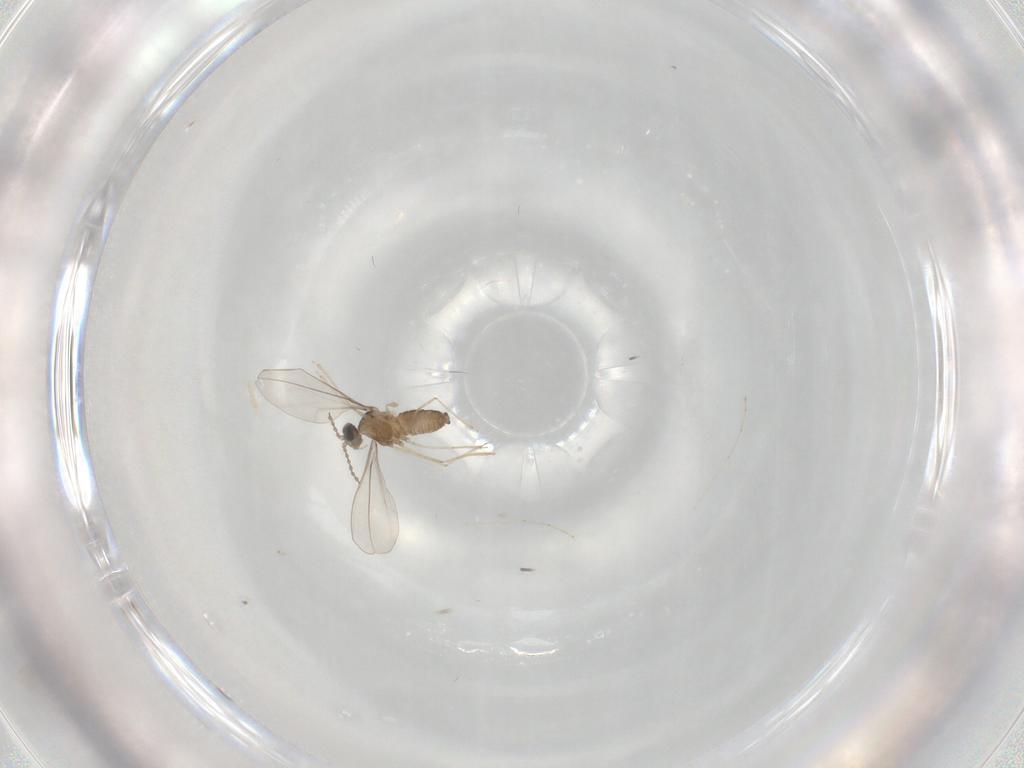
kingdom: Animalia
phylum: Arthropoda
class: Insecta
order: Diptera
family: Cecidomyiidae
